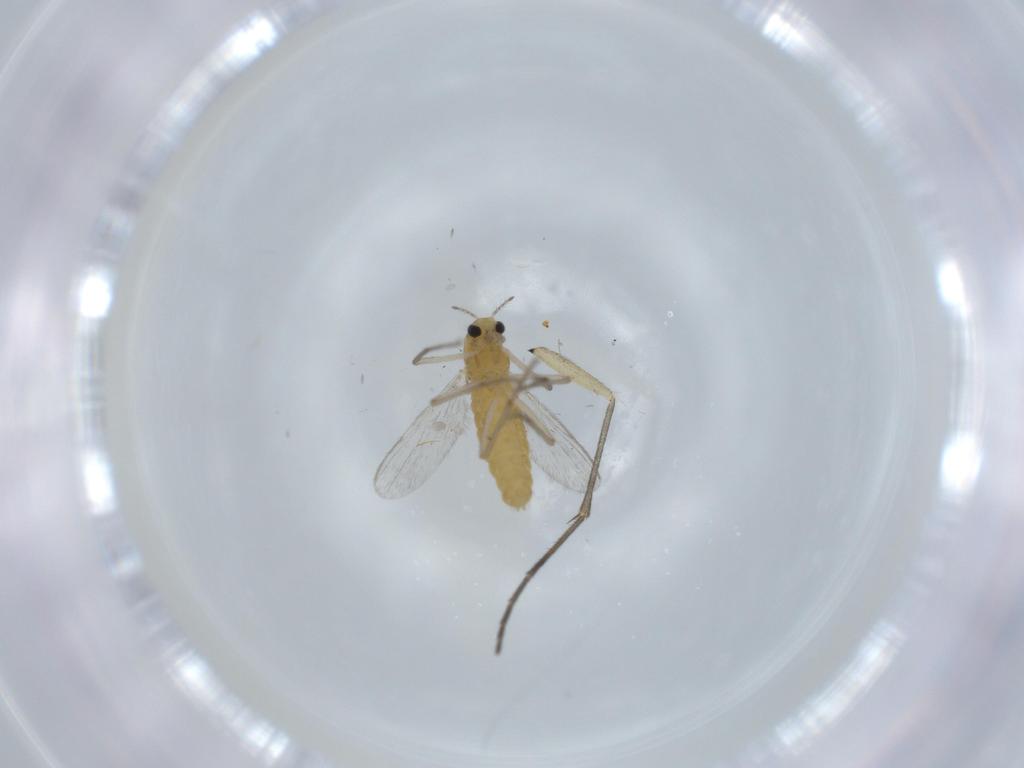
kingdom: Animalia
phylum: Arthropoda
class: Insecta
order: Diptera
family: Chironomidae
